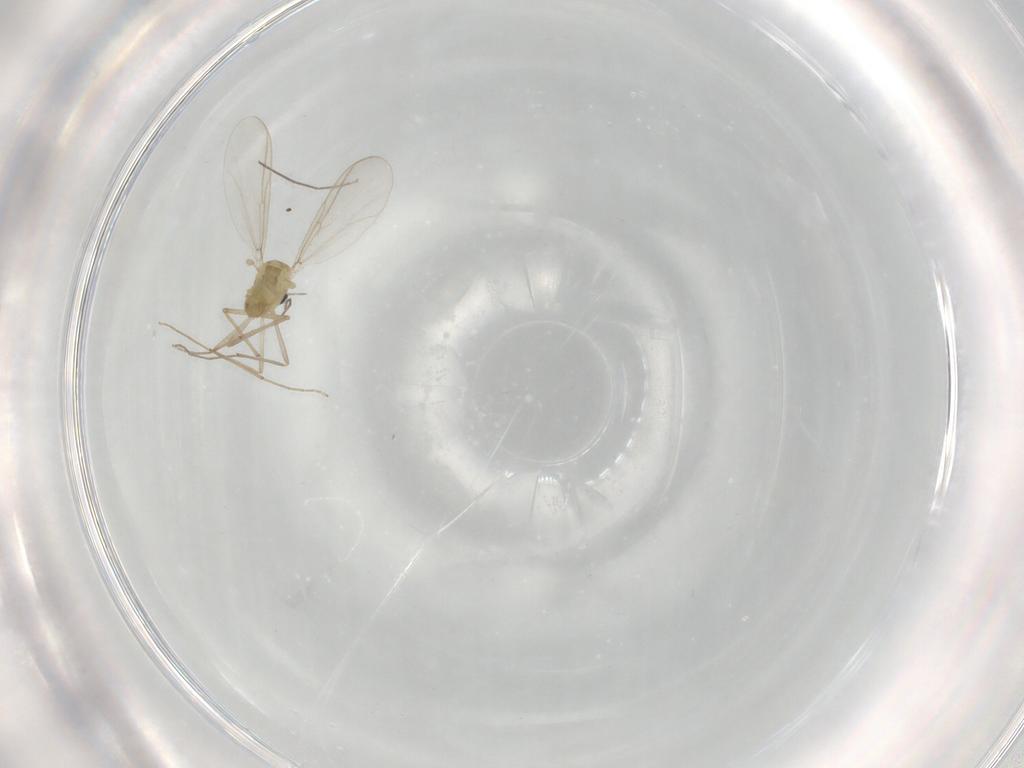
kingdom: Animalia
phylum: Arthropoda
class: Insecta
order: Diptera
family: Chironomidae
